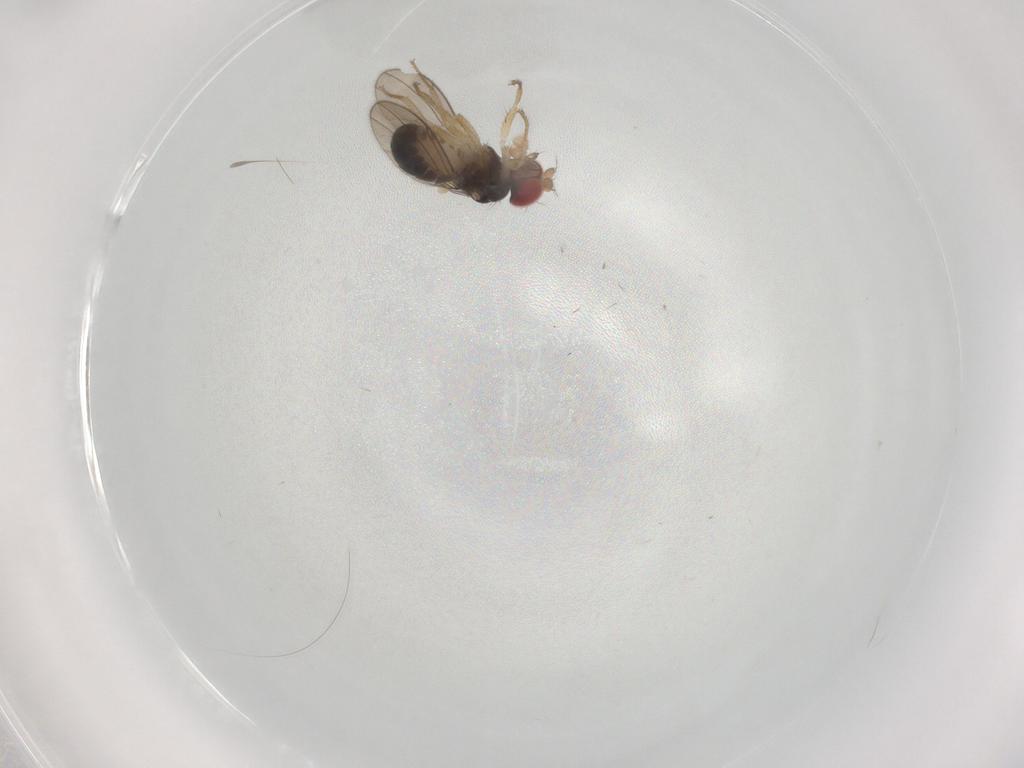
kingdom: Animalia
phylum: Arthropoda
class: Insecta
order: Diptera
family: Drosophilidae
